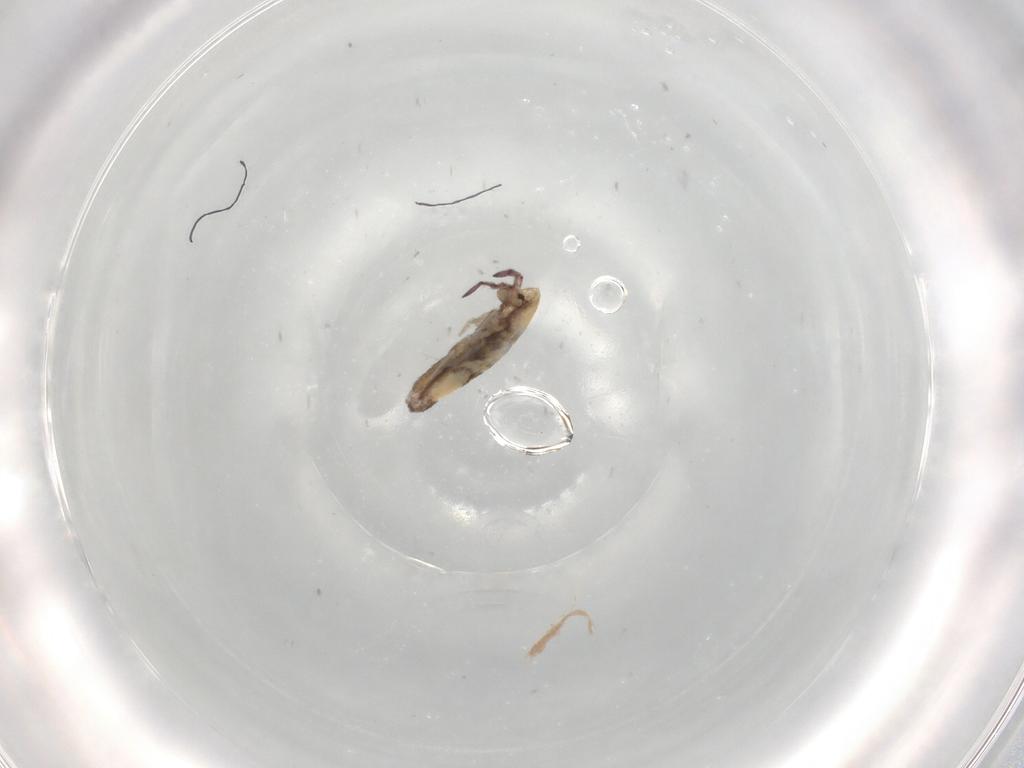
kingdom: Animalia
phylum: Arthropoda
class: Collembola
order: Entomobryomorpha
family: Entomobryidae
